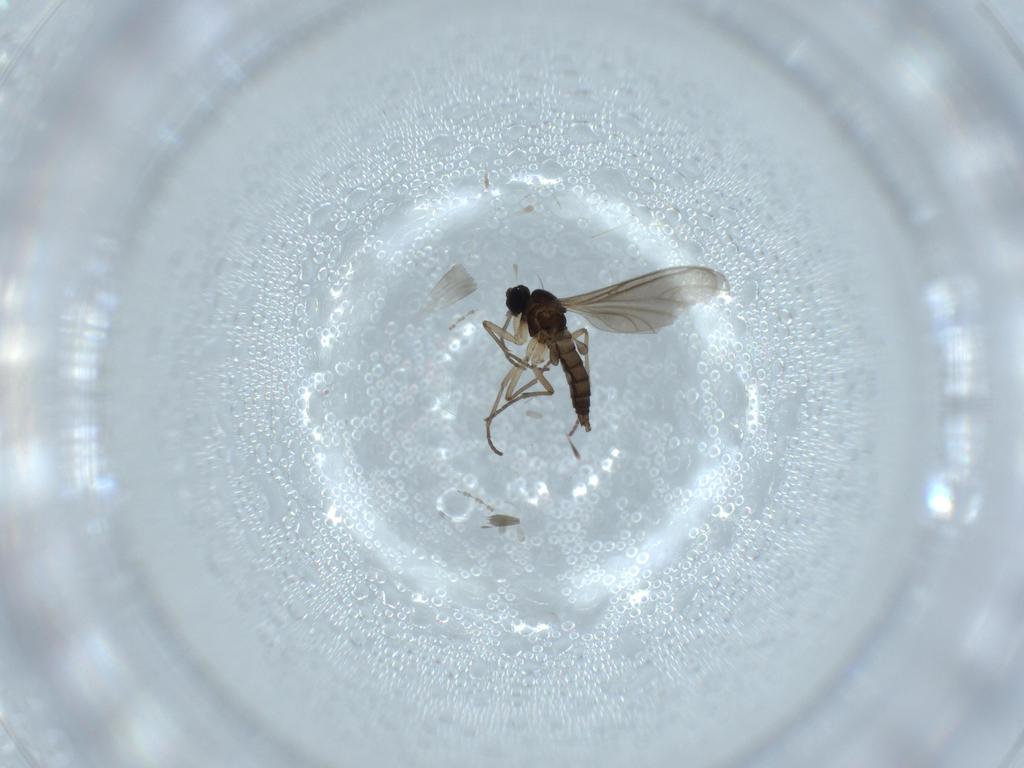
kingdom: Animalia
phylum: Arthropoda
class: Insecta
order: Diptera
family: Sciaridae
